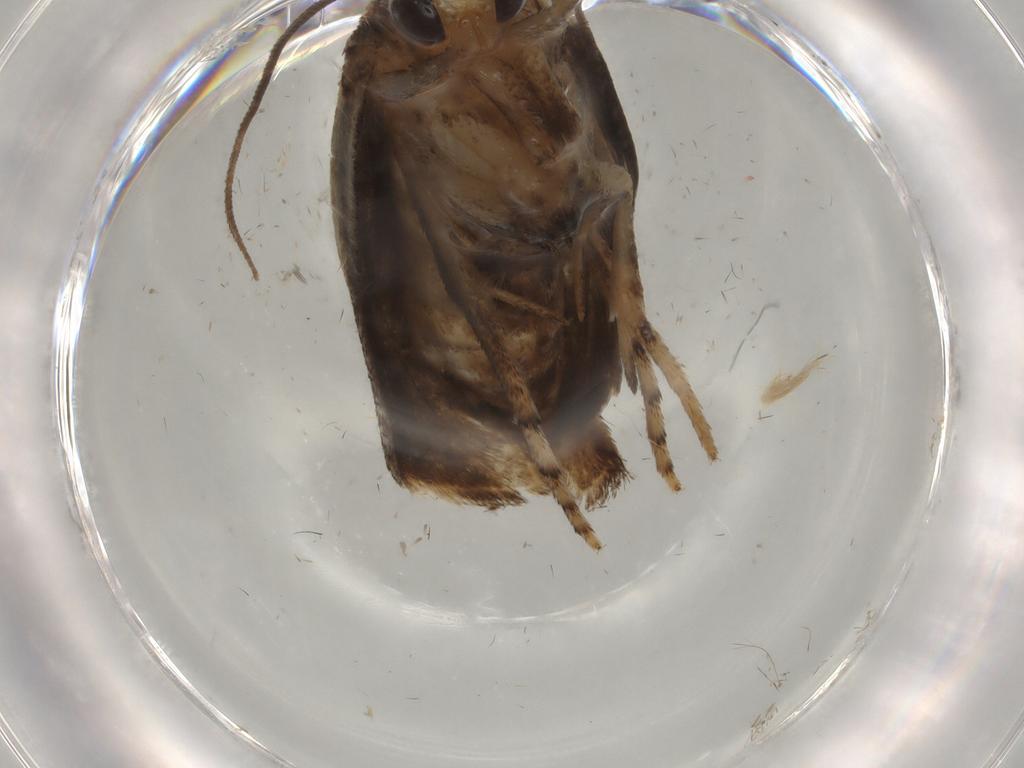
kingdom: Animalia
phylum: Arthropoda
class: Insecta
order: Lepidoptera
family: Yponomeutidae
